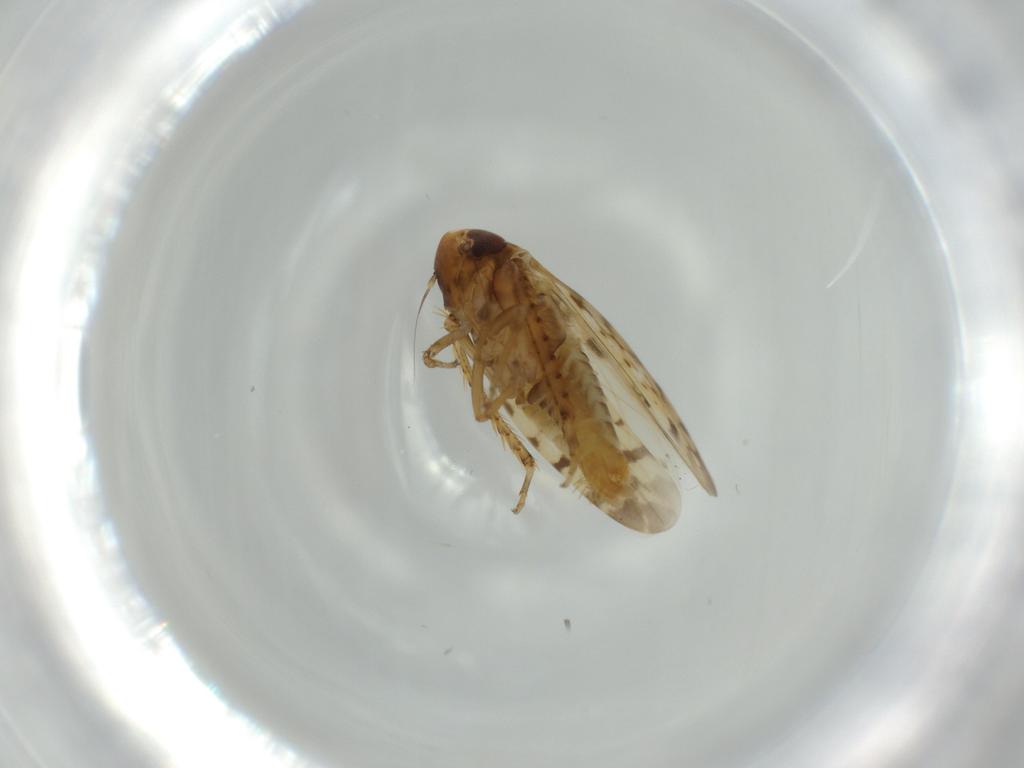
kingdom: Animalia
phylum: Arthropoda
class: Insecta
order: Hemiptera
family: Cicadellidae
